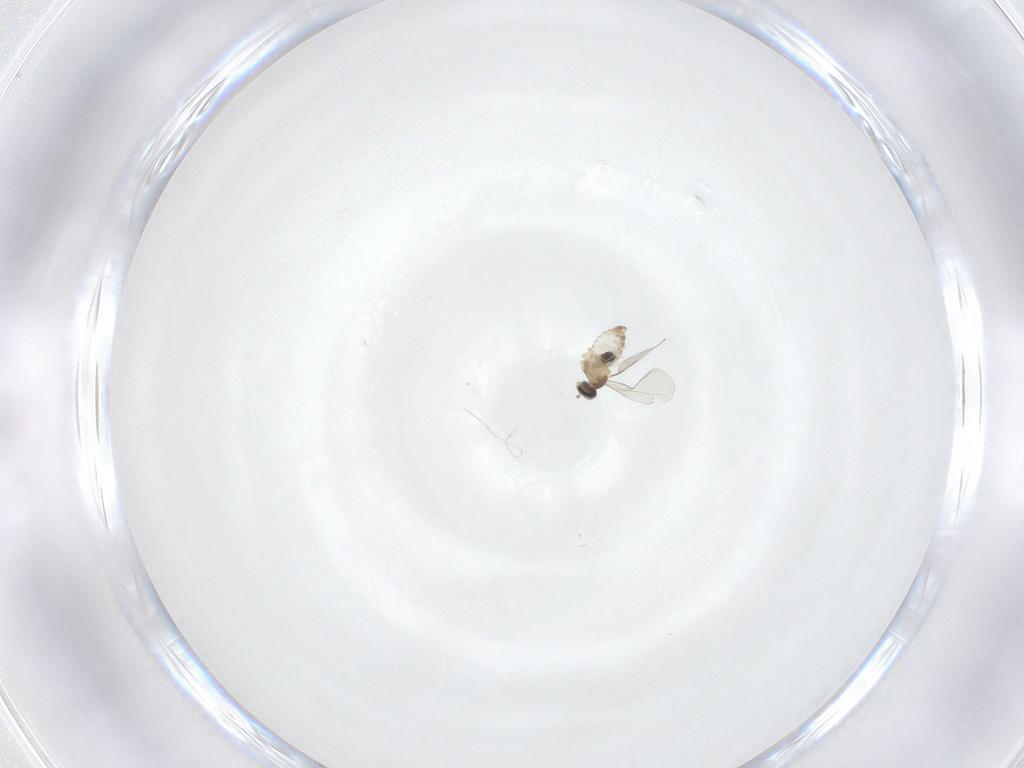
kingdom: Animalia
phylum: Arthropoda
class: Insecta
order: Diptera
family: Cecidomyiidae
